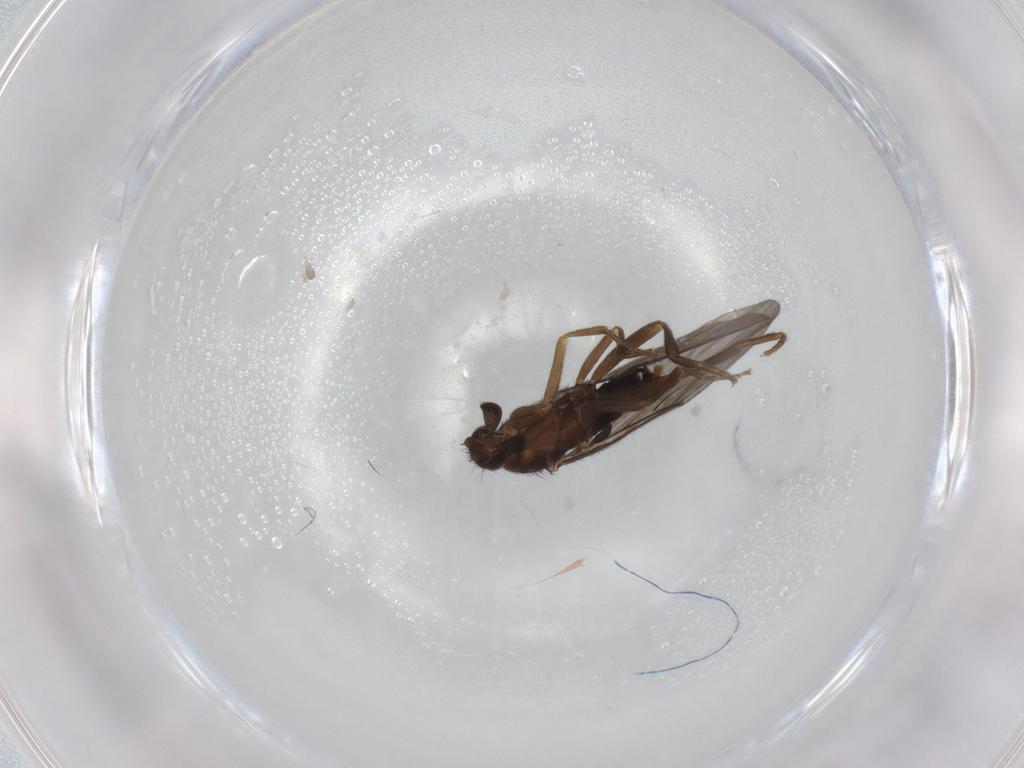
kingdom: Animalia
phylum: Arthropoda
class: Insecta
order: Diptera
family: Phoridae
